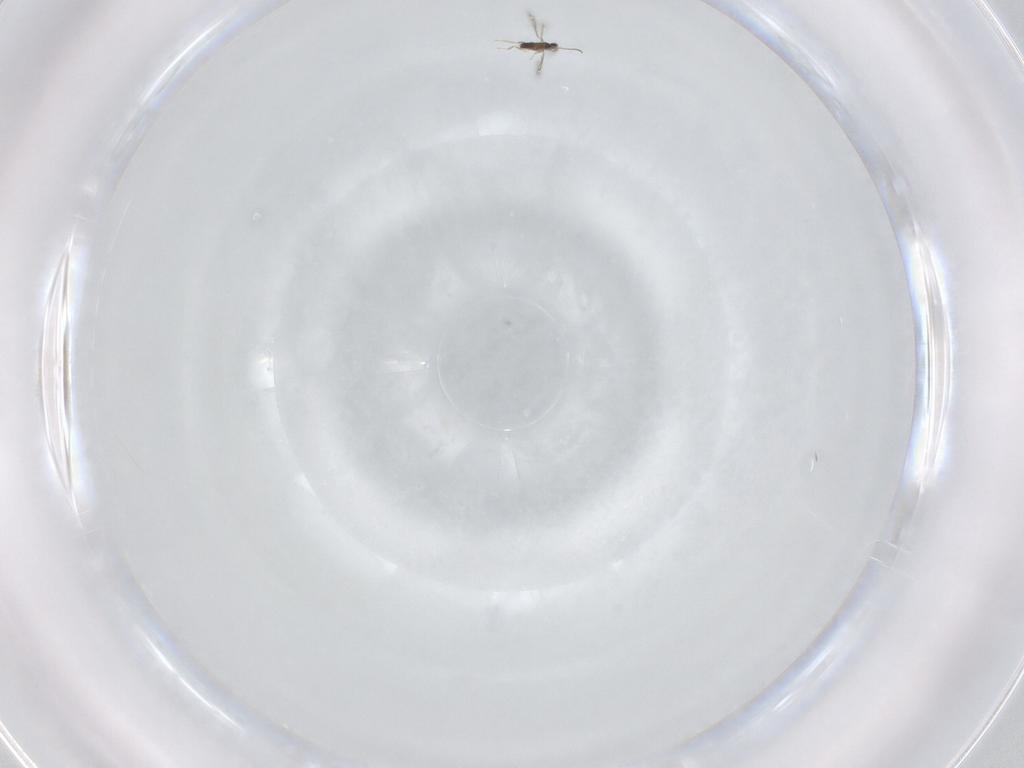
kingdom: Animalia
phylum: Arthropoda
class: Insecta
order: Hymenoptera
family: Mymaridae
